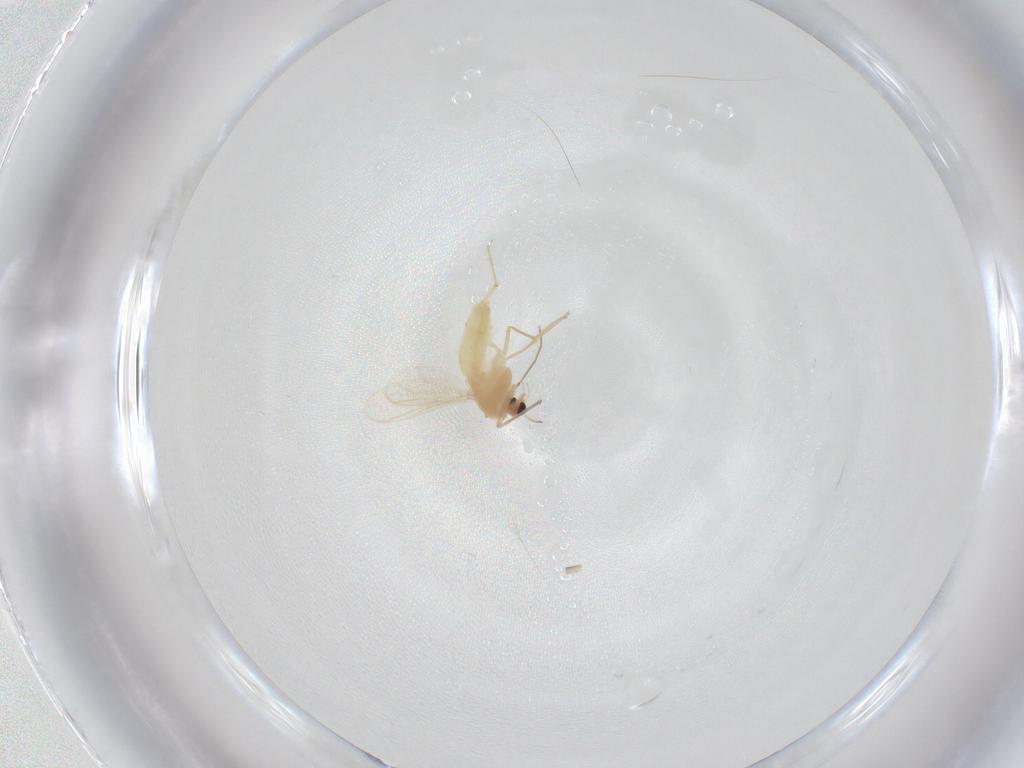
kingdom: Animalia
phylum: Arthropoda
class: Insecta
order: Diptera
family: Chironomidae
